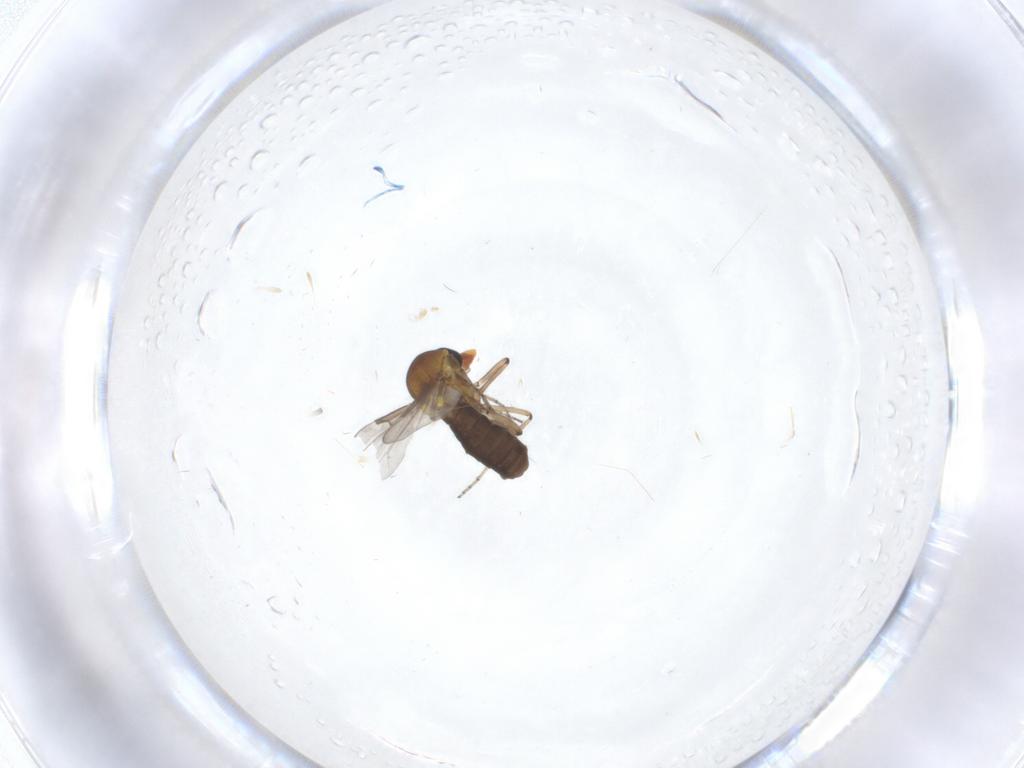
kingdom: Animalia
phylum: Arthropoda
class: Insecta
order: Diptera
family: Ceratopogonidae
